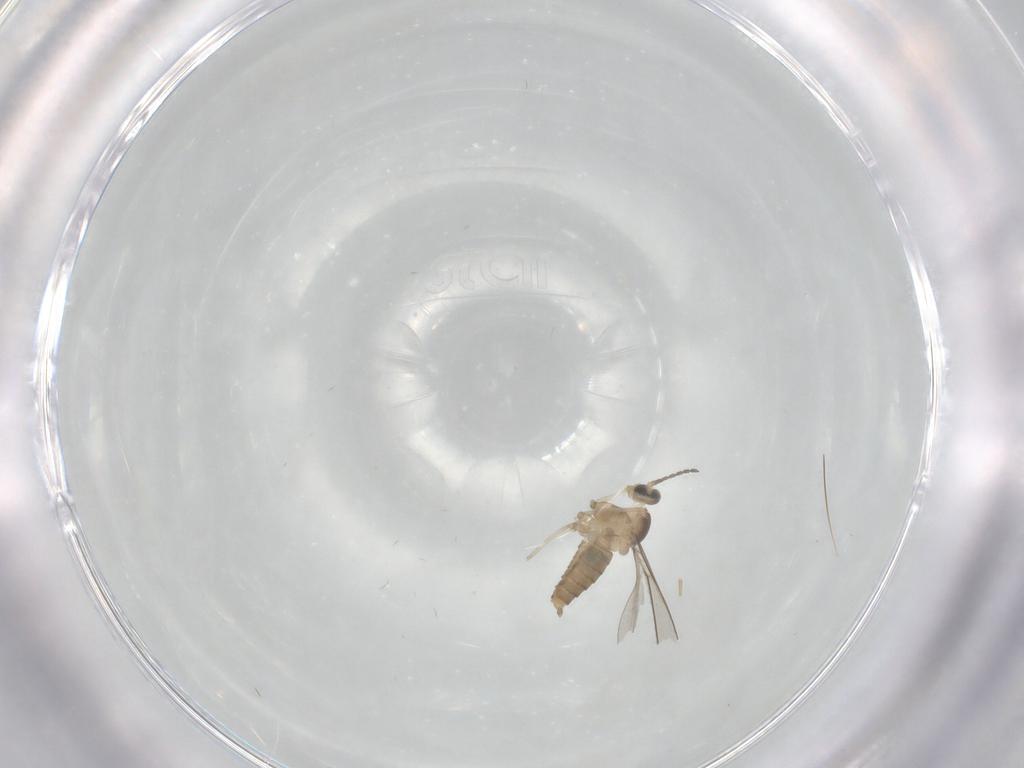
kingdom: Animalia
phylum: Arthropoda
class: Insecta
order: Diptera
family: Cecidomyiidae
